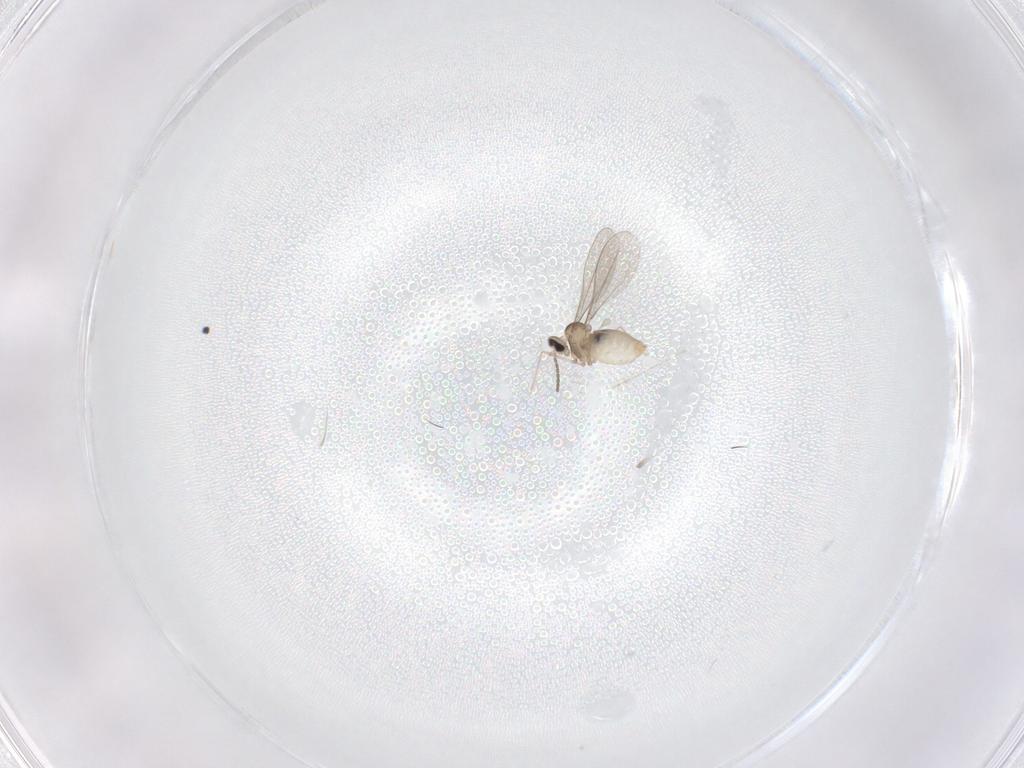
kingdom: Animalia
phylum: Arthropoda
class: Insecta
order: Diptera
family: Cecidomyiidae
